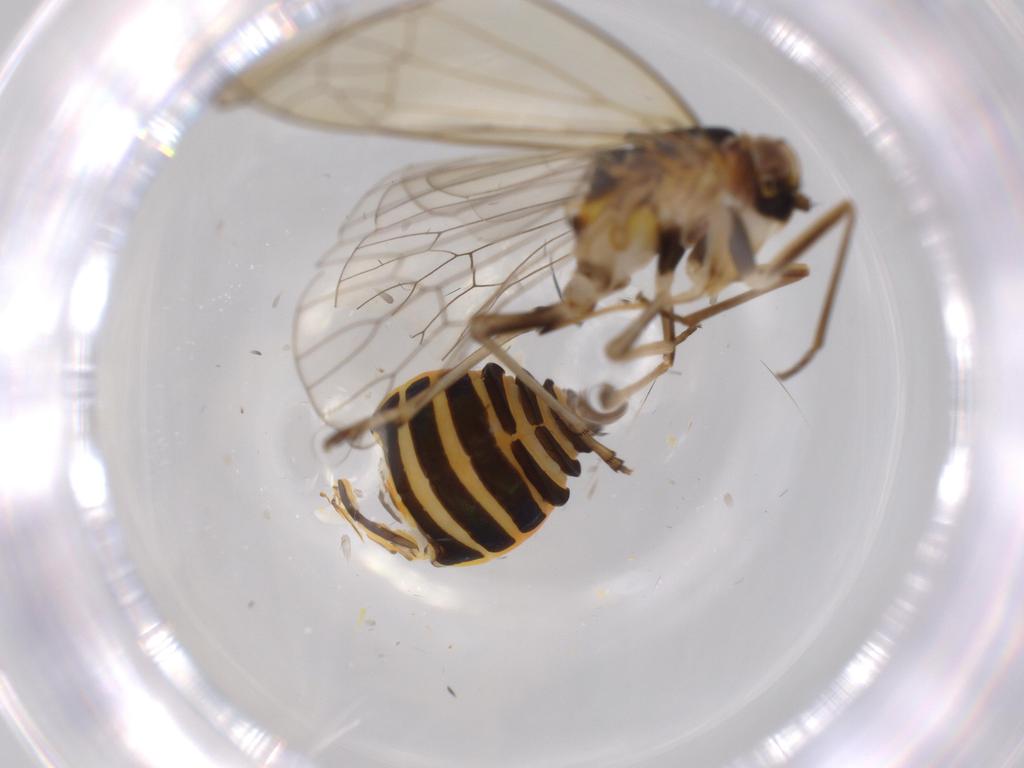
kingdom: Animalia
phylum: Arthropoda
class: Insecta
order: Hemiptera
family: Kinnaridae
